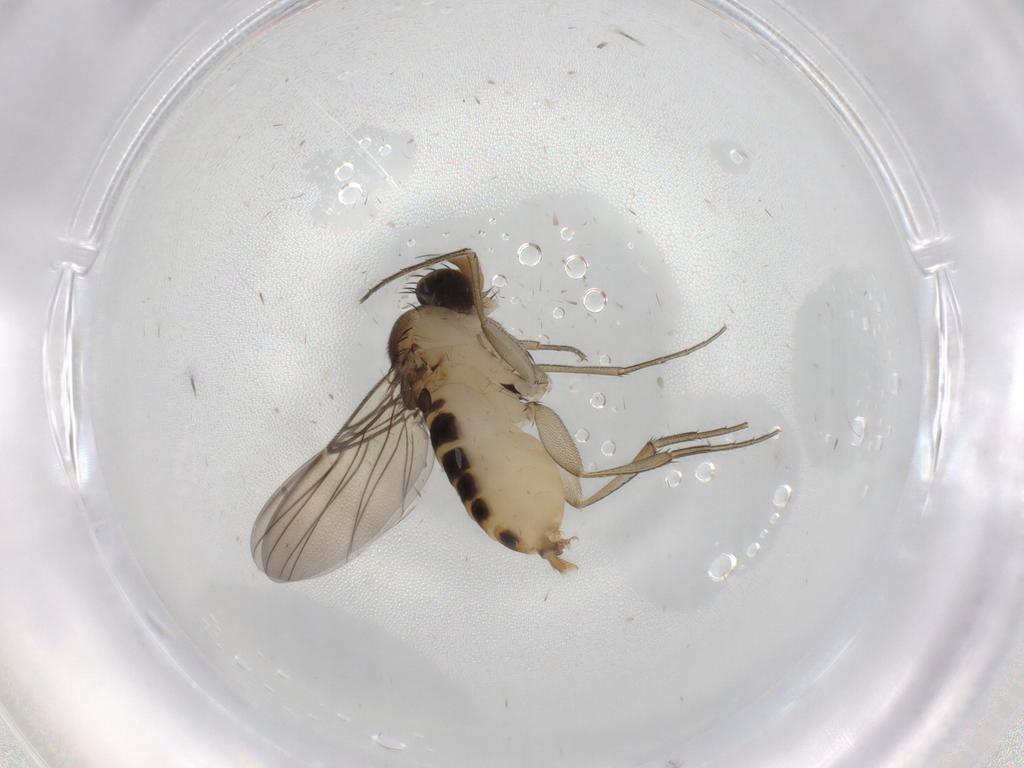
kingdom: Animalia
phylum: Arthropoda
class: Insecta
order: Diptera
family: Phoridae
